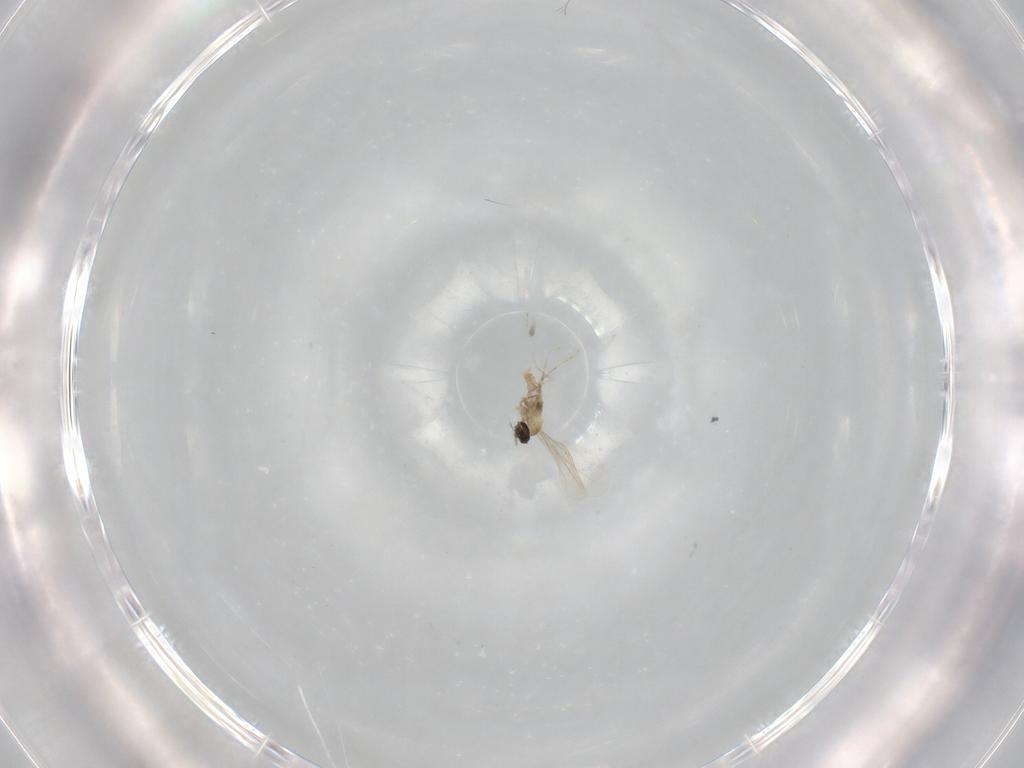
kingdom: Animalia
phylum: Arthropoda
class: Insecta
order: Diptera
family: Cecidomyiidae
